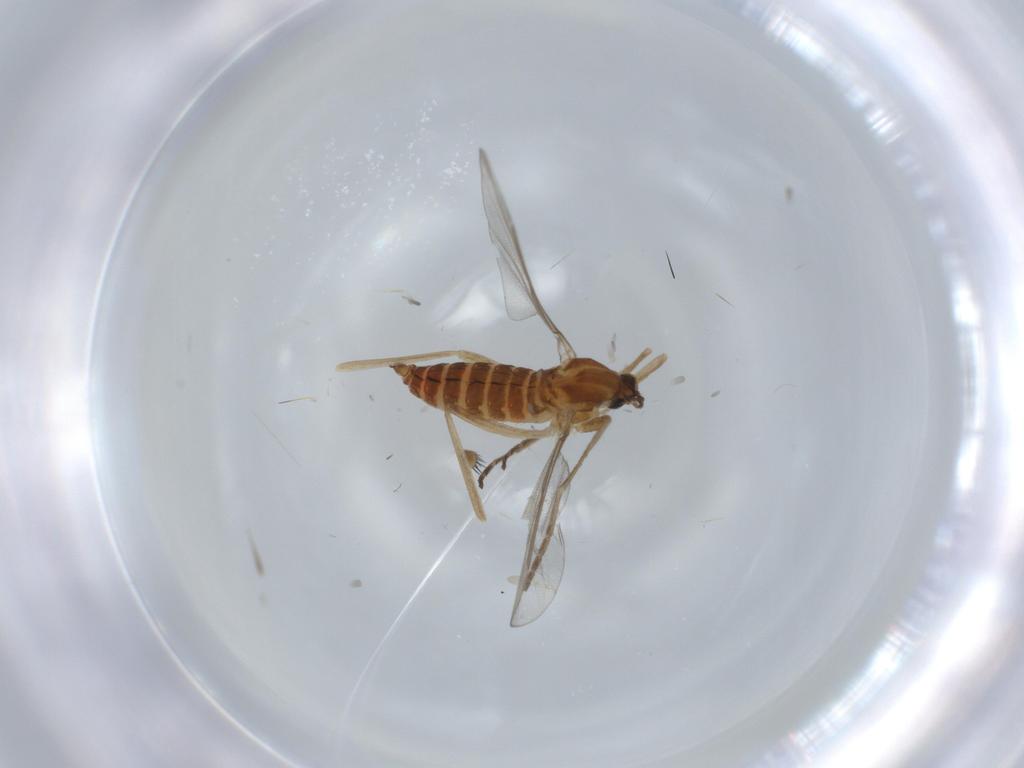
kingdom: Animalia
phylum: Arthropoda
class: Insecta
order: Diptera
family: Cecidomyiidae
